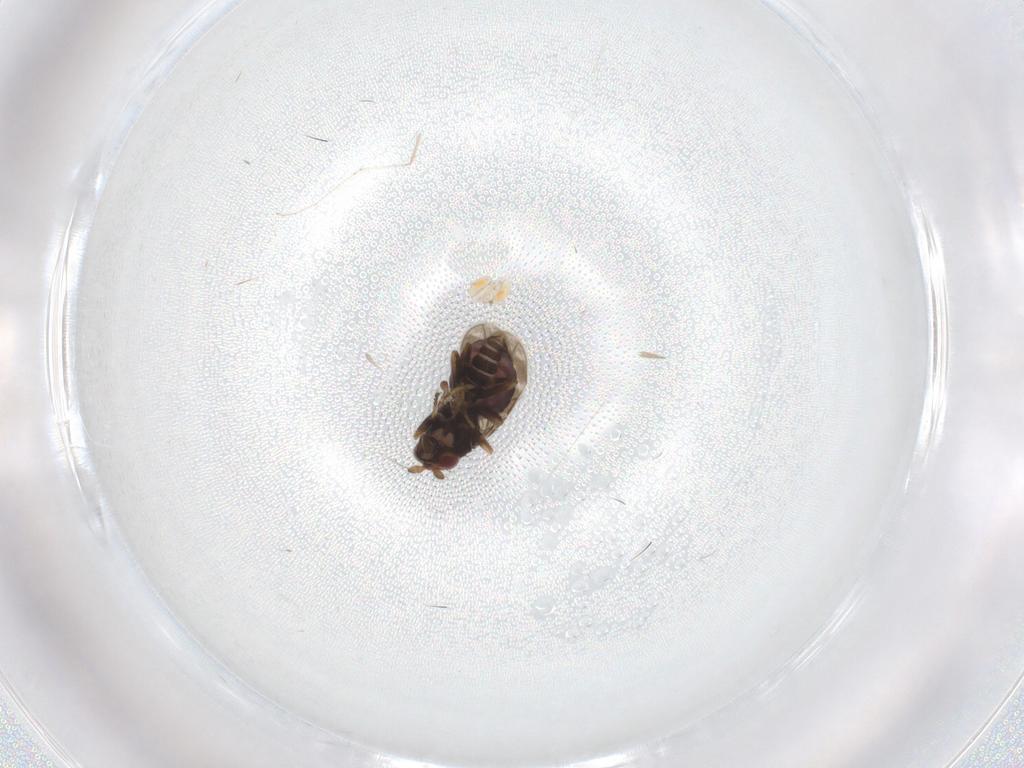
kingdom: Animalia
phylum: Arthropoda
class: Insecta
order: Diptera
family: Sphaeroceridae
